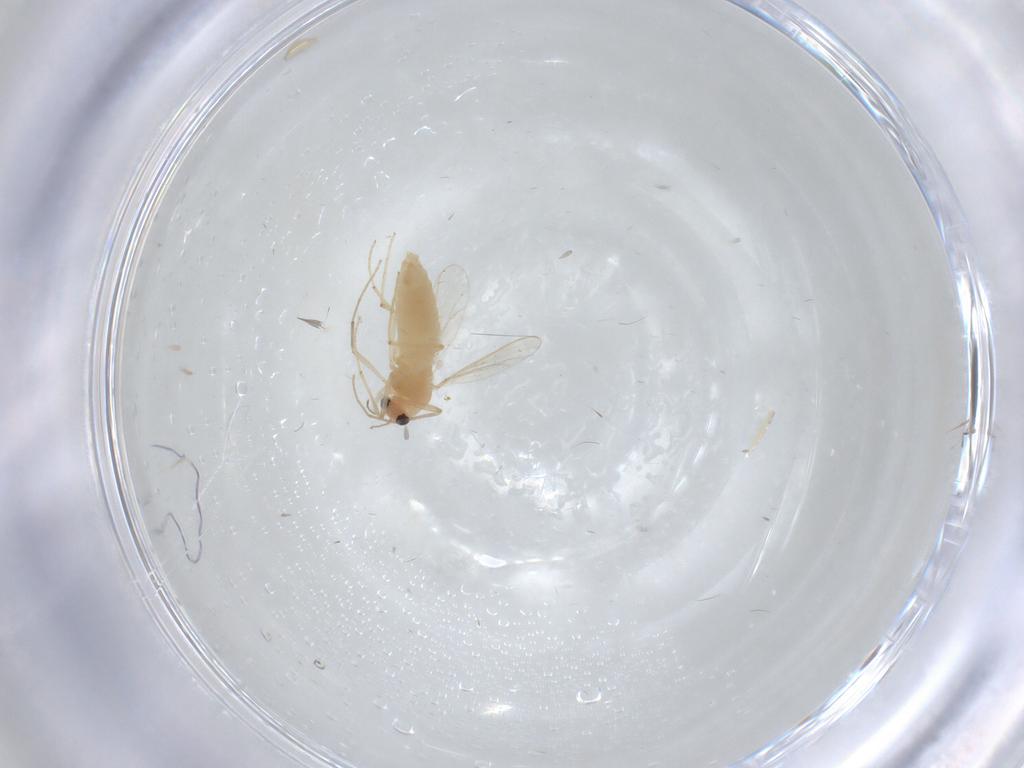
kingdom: Animalia
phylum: Arthropoda
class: Insecta
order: Diptera
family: Chironomidae
